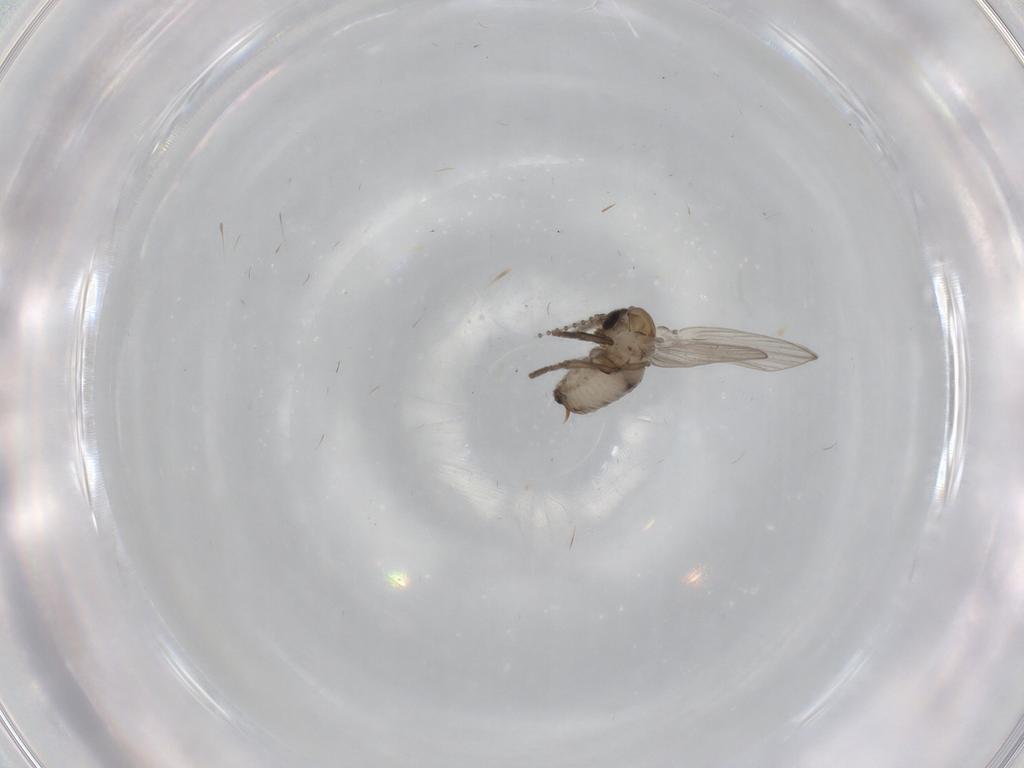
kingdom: Animalia
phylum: Arthropoda
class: Insecta
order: Diptera
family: Psychodidae
